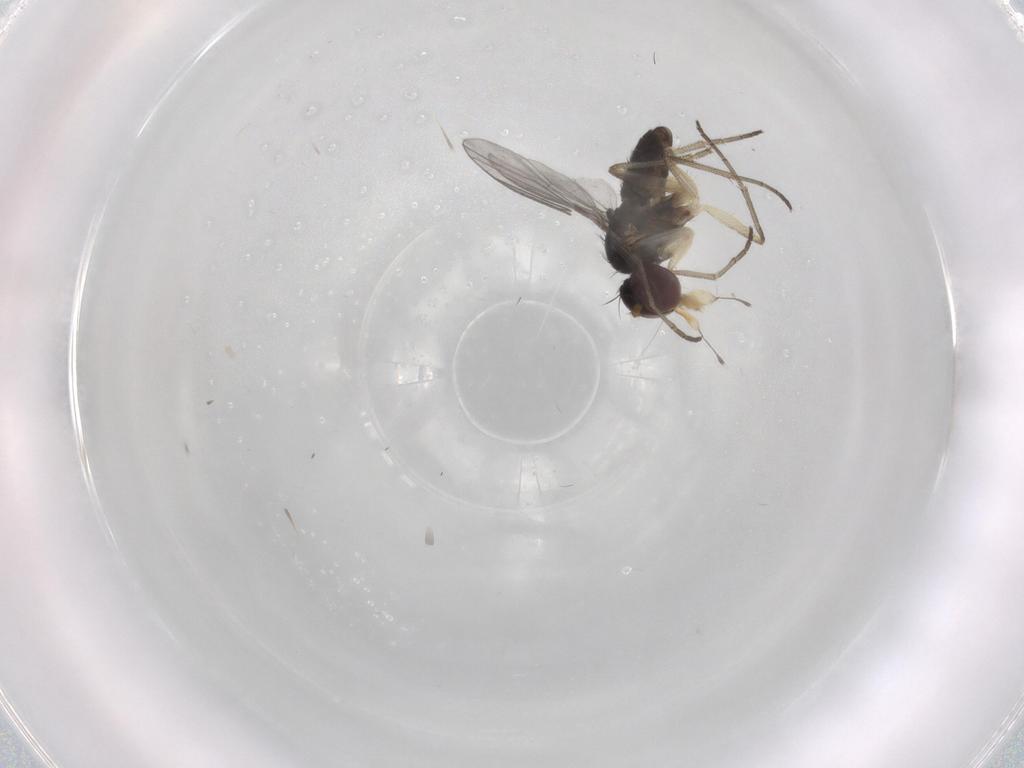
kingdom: Animalia
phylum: Arthropoda
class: Insecta
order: Diptera
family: Dolichopodidae
